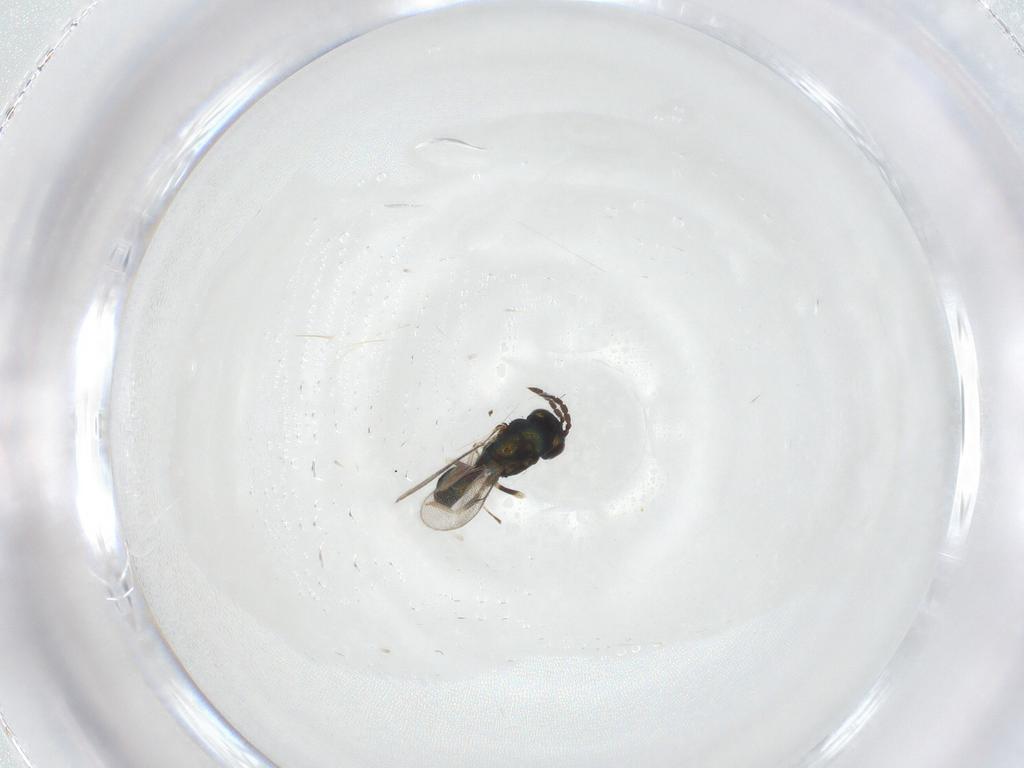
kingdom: Animalia
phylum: Arthropoda
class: Insecta
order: Hymenoptera
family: Eulophidae
